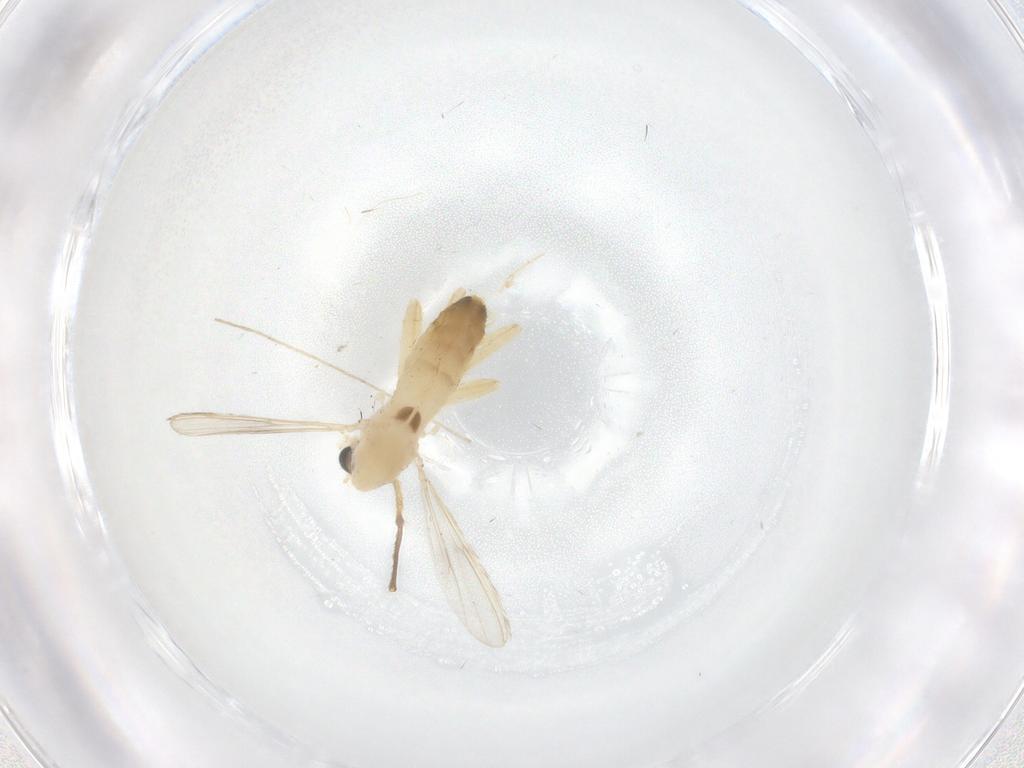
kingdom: Animalia
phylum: Arthropoda
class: Insecta
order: Diptera
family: Chironomidae
